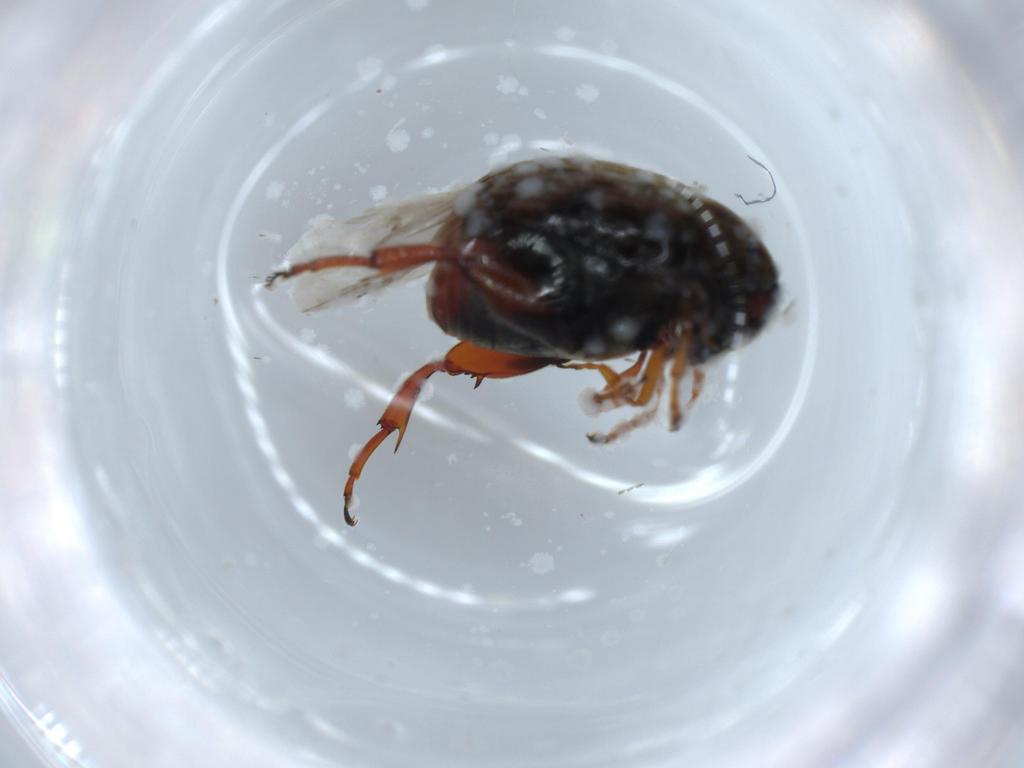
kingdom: Animalia
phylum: Arthropoda
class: Insecta
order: Coleoptera
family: Chrysomelidae
